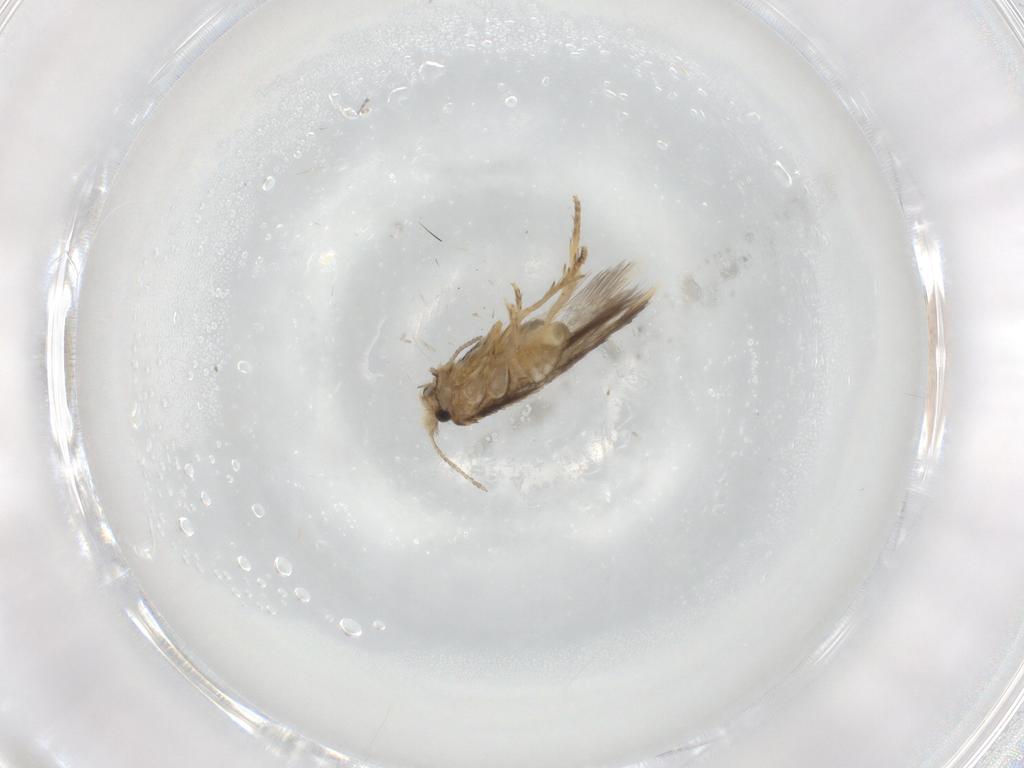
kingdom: Animalia
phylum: Arthropoda
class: Insecta
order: Lepidoptera
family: Nepticulidae
